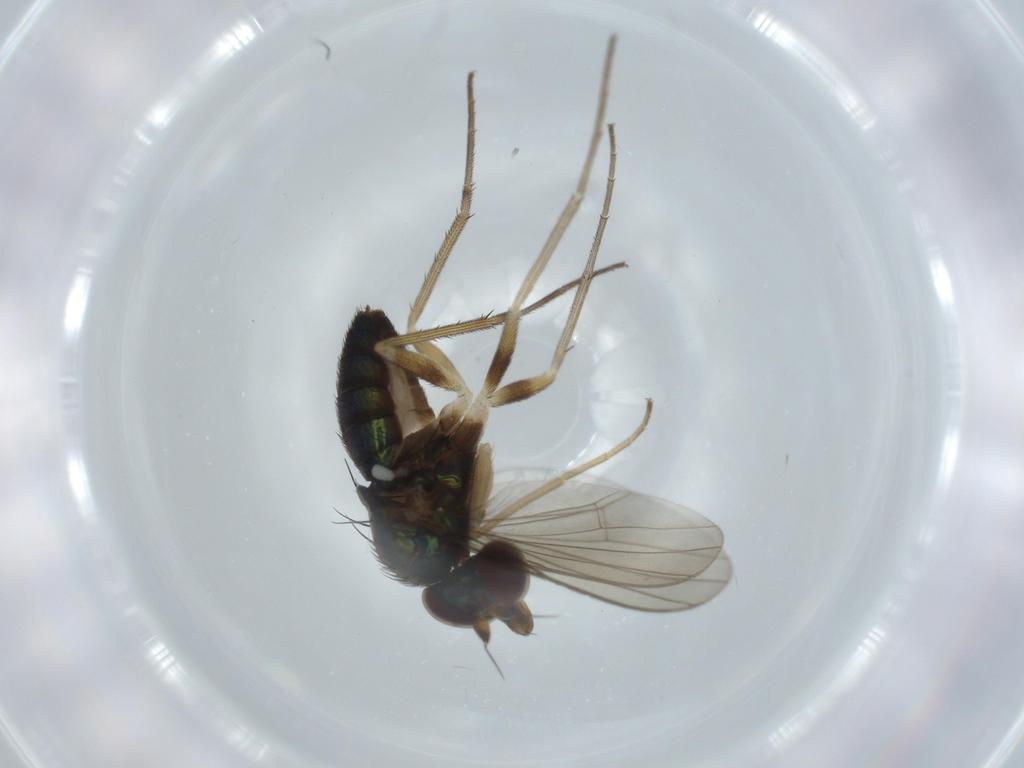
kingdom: Animalia
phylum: Arthropoda
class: Insecta
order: Diptera
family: Dolichopodidae
